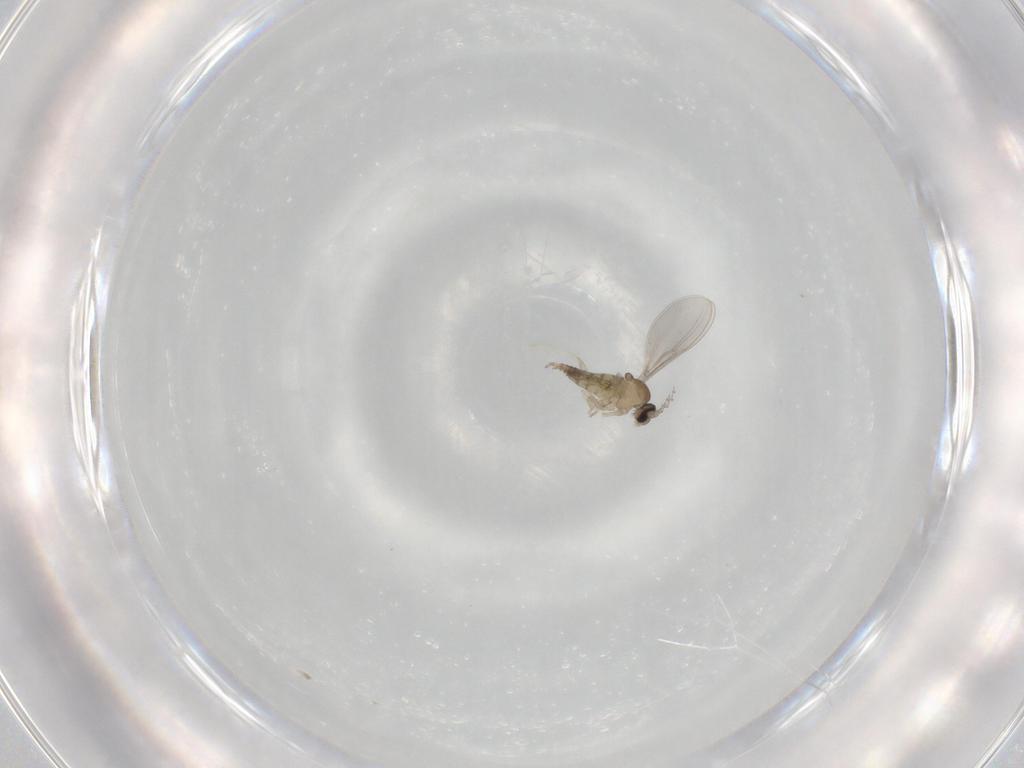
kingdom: Animalia
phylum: Arthropoda
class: Insecta
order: Diptera
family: Cecidomyiidae
